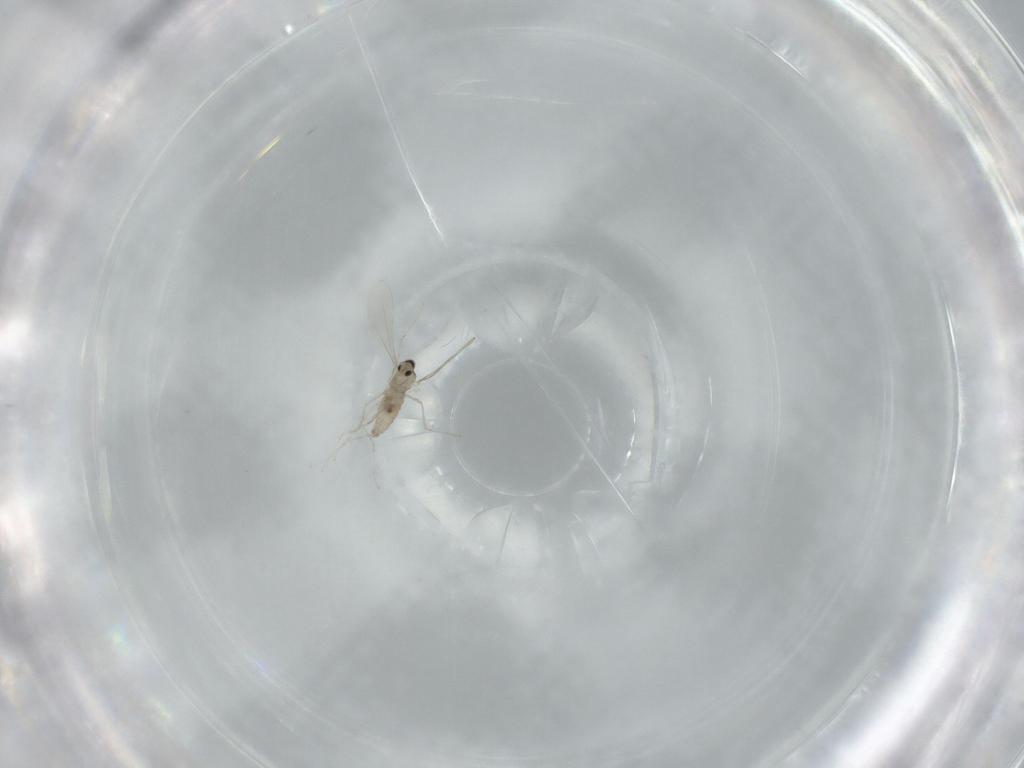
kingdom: Animalia
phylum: Arthropoda
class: Insecta
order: Diptera
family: Cecidomyiidae
